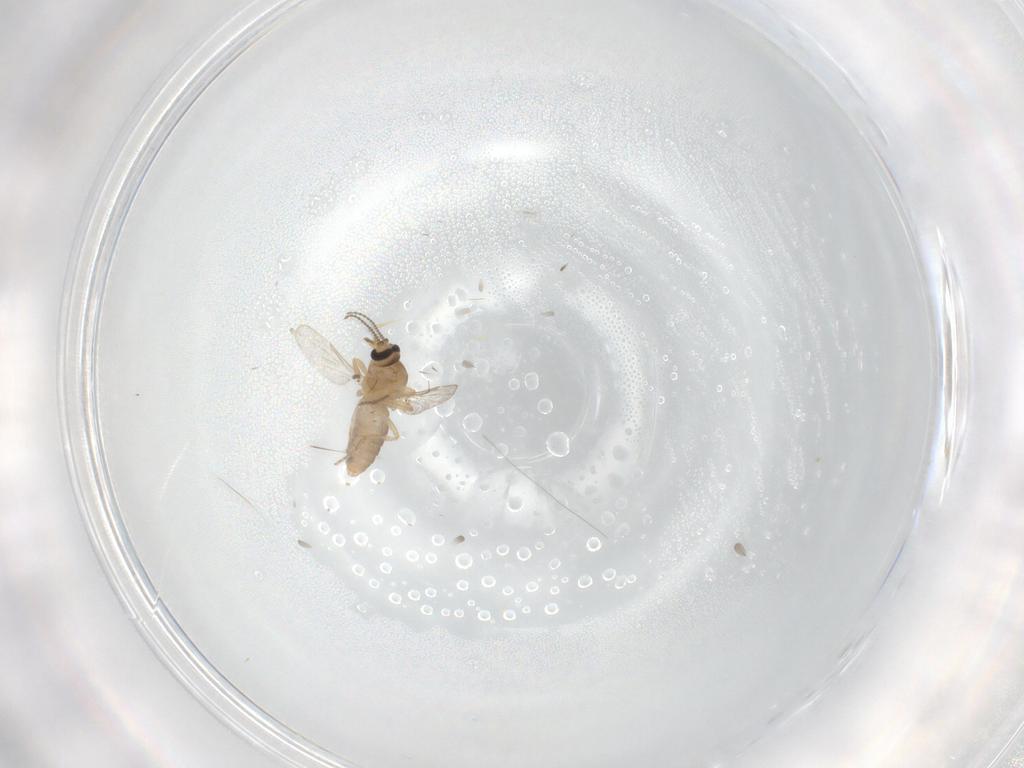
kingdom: Animalia
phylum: Arthropoda
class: Insecta
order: Diptera
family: Ceratopogonidae
